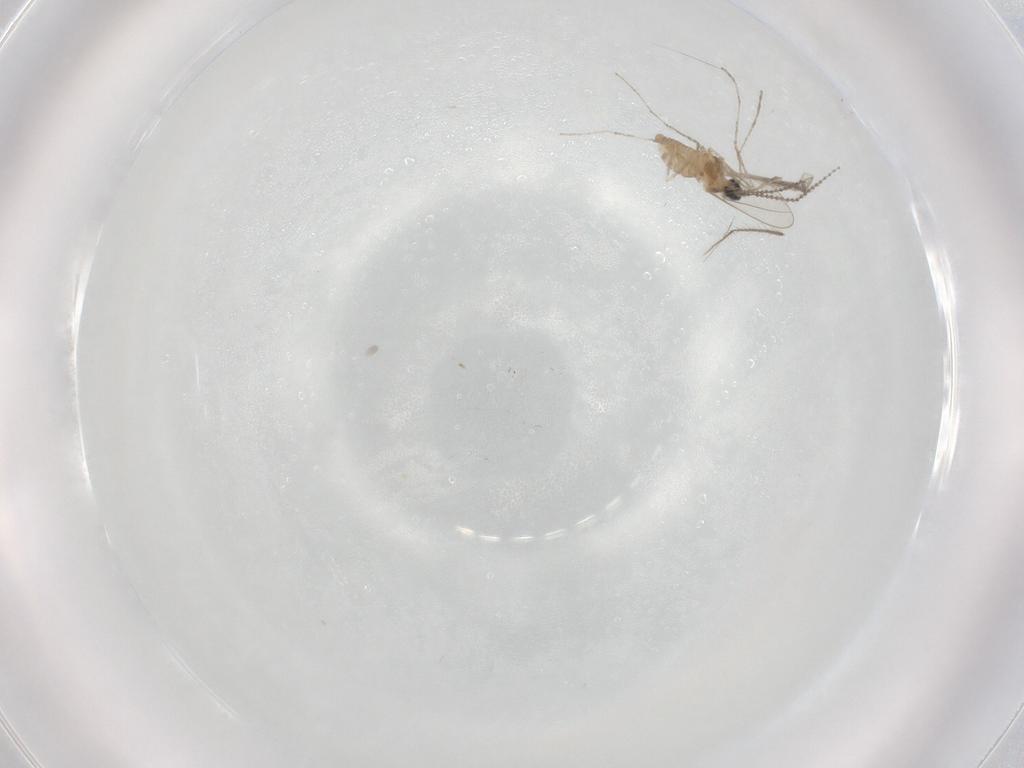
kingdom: Animalia
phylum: Arthropoda
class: Insecta
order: Diptera
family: Cecidomyiidae
